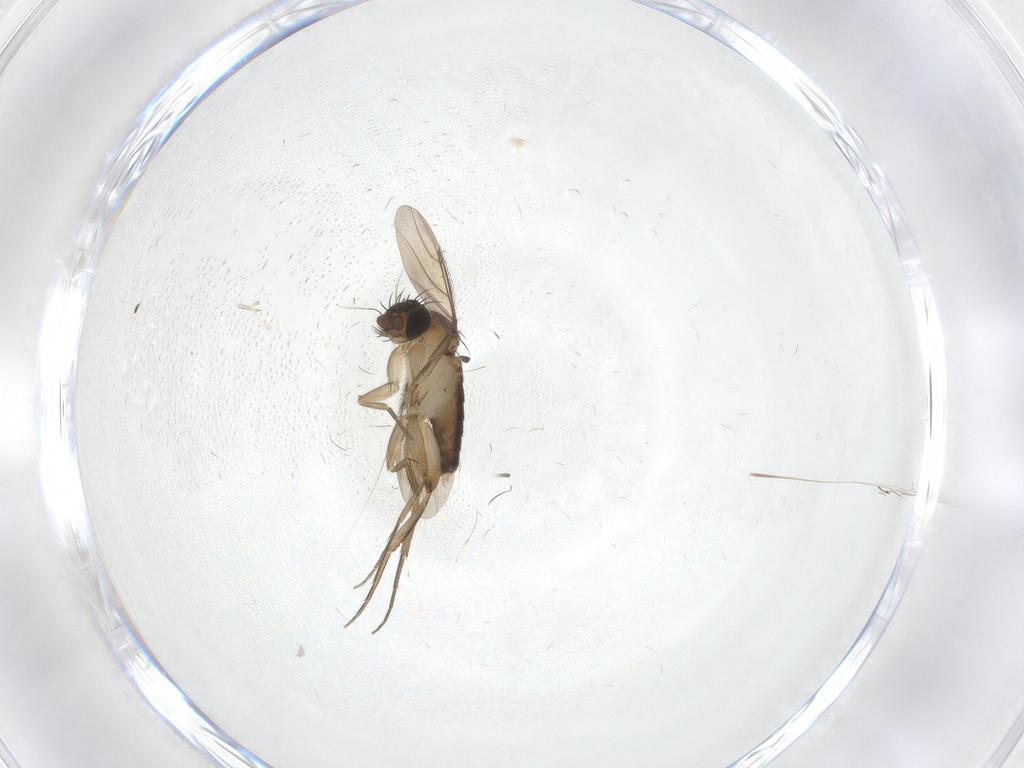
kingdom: Animalia
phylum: Arthropoda
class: Insecta
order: Diptera
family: Phoridae
